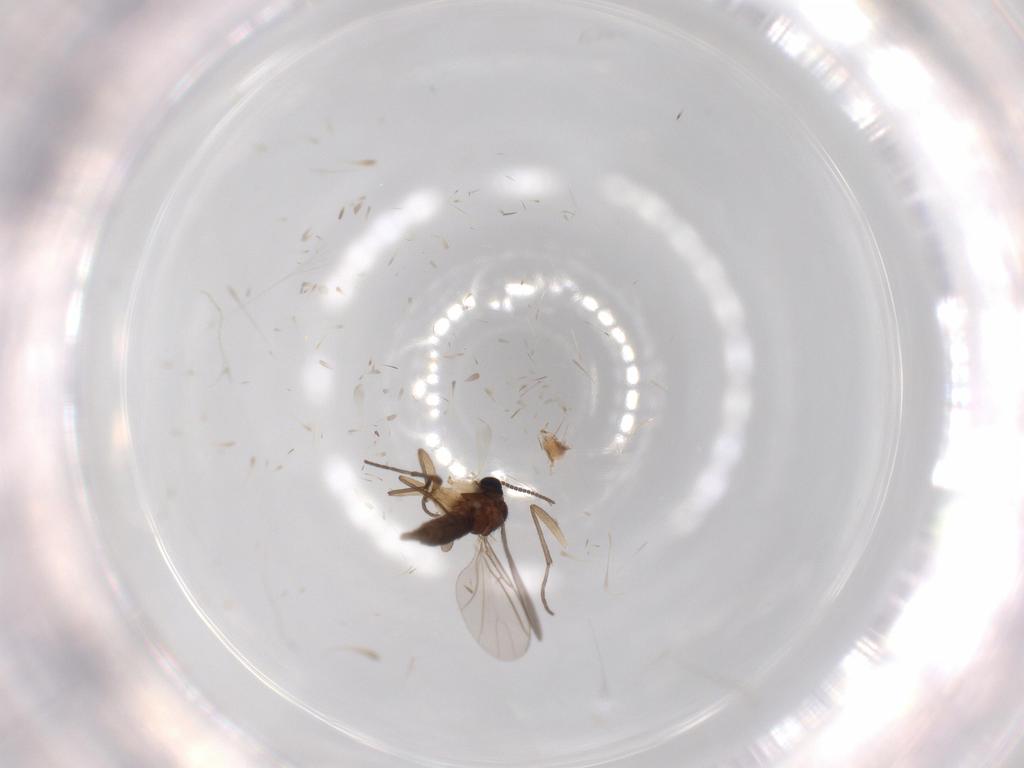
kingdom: Animalia
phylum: Arthropoda
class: Insecta
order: Diptera
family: Sciaridae
